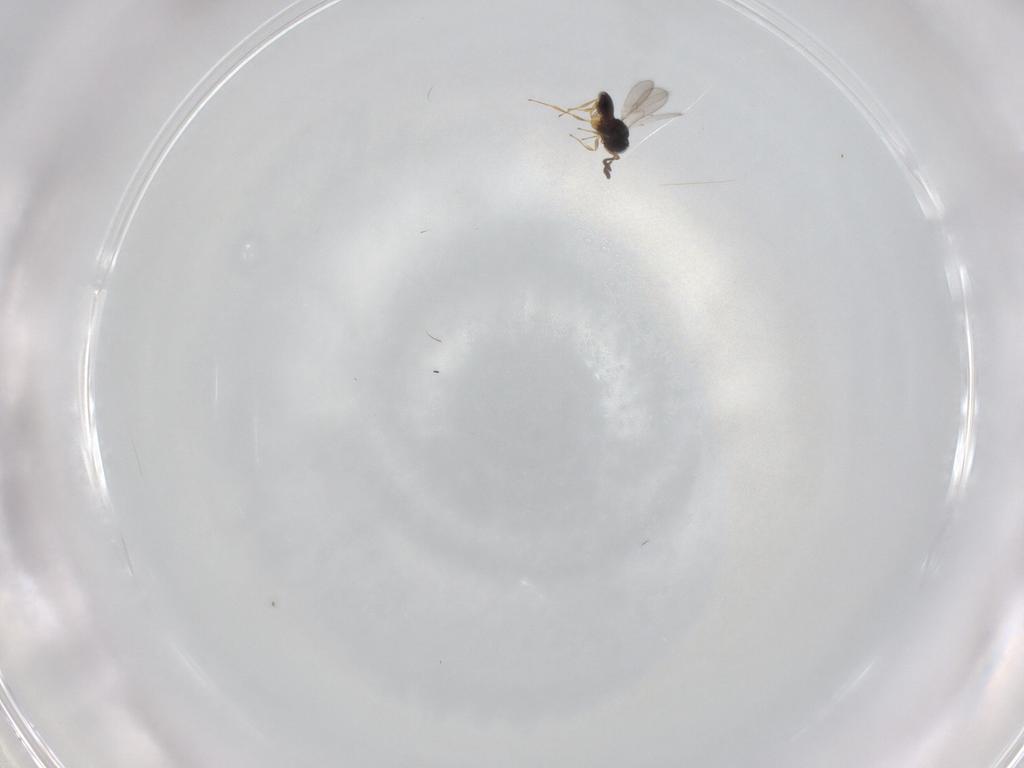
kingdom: Animalia
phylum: Arthropoda
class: Insecta
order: Hymenoptera
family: Scelionidae
